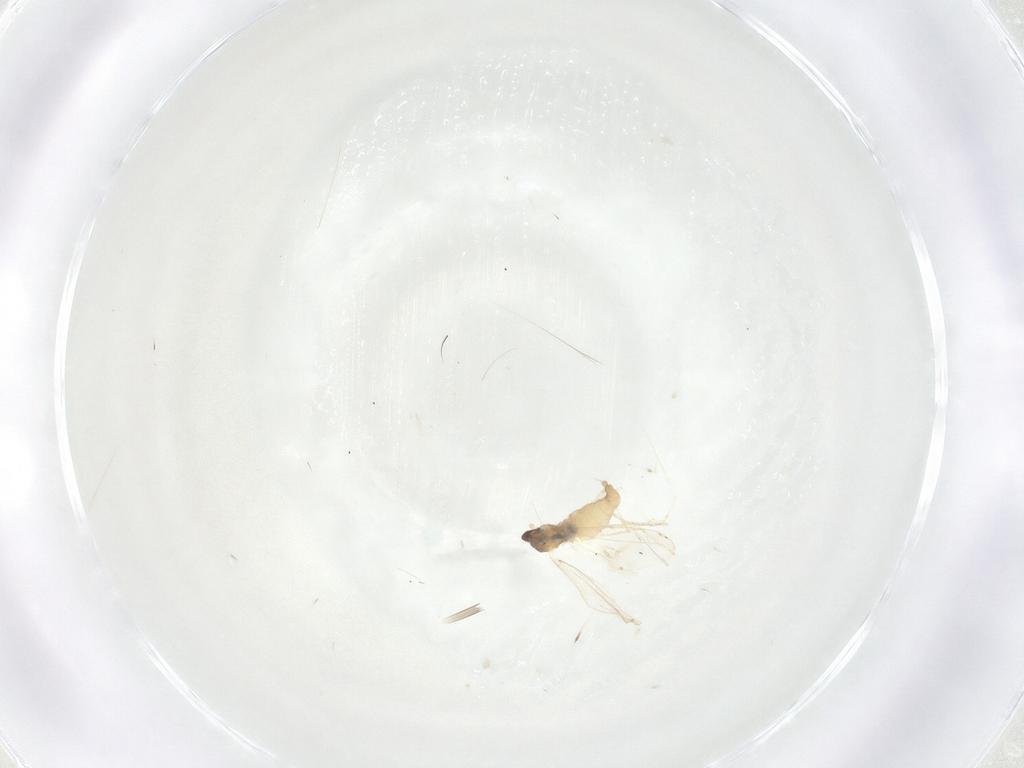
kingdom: Animalia
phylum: Arthropoda
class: Insecta
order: Diptera
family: Cecidomyiidae
